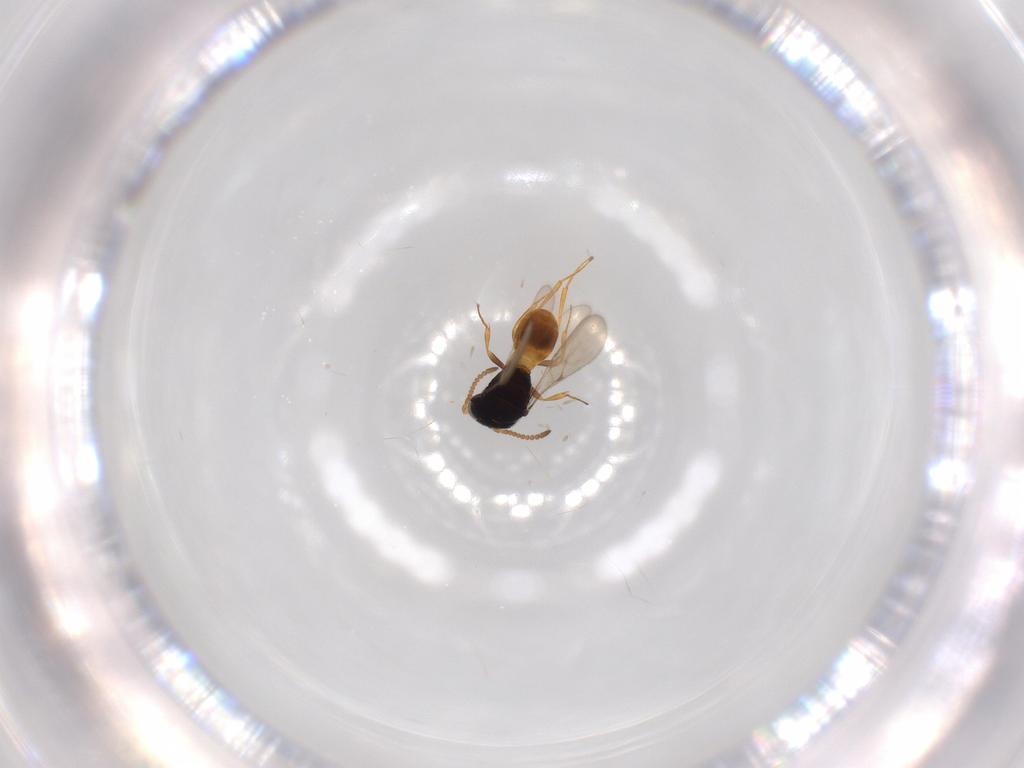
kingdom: Animalia
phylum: Arthropoda
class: Insecta
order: Hymenoptera
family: Scelionidae
